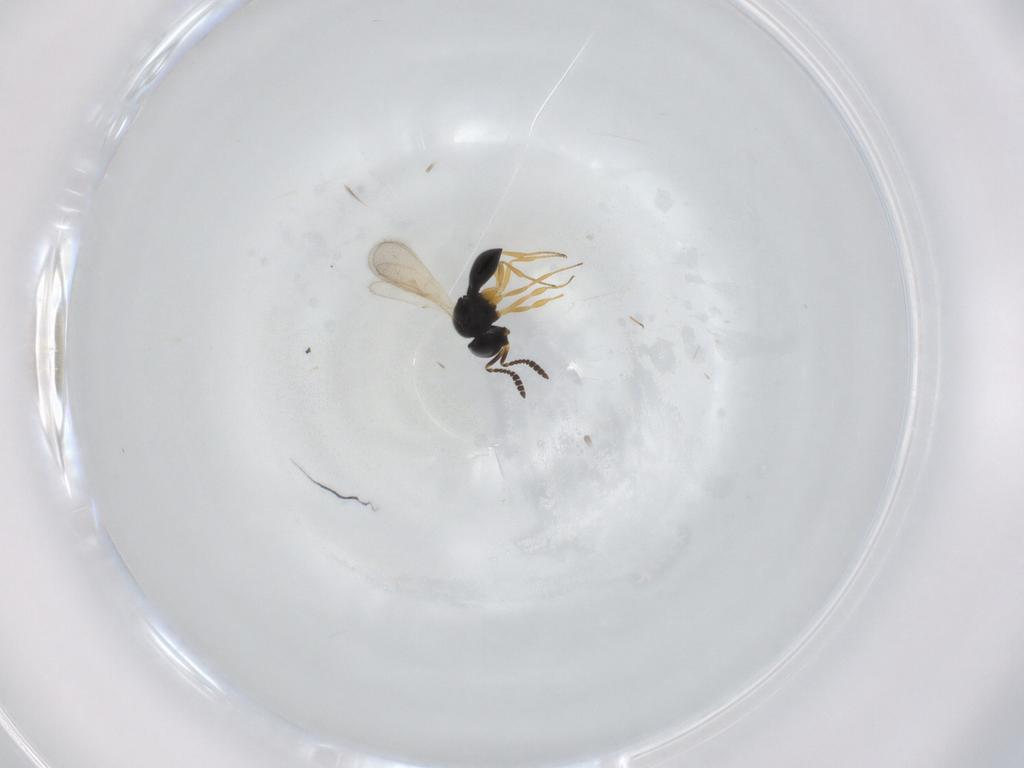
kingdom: Animalia
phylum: Arthropoda
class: Insecta
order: Hymenoptera
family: Scelionidae
